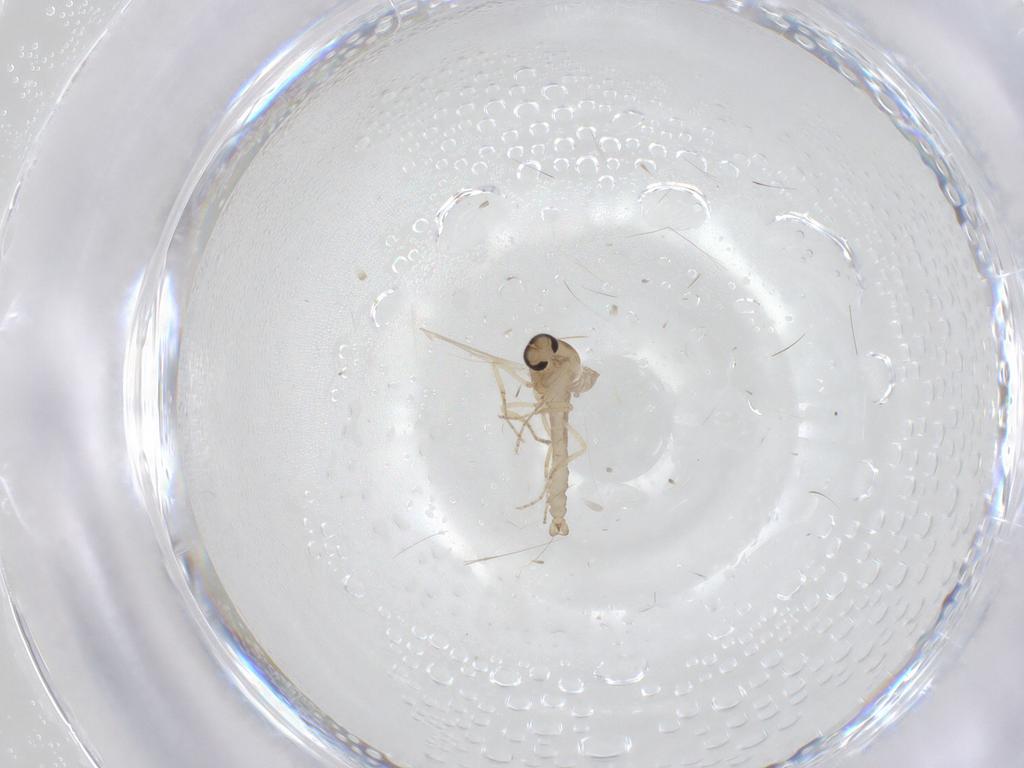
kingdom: Animalia
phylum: Arthropoda
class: Insecta
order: Diptera
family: Ceratopogonidae
